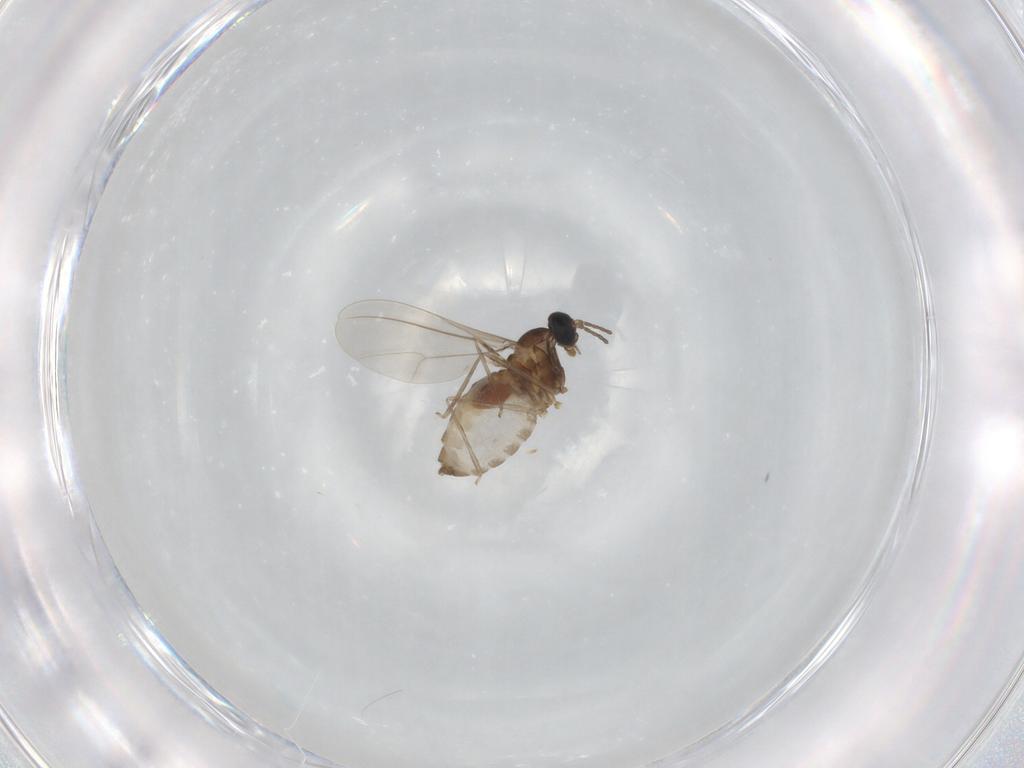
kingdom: Animalia
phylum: Arthropoda
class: Insecta
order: Diptera
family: Cecidomyiidae
